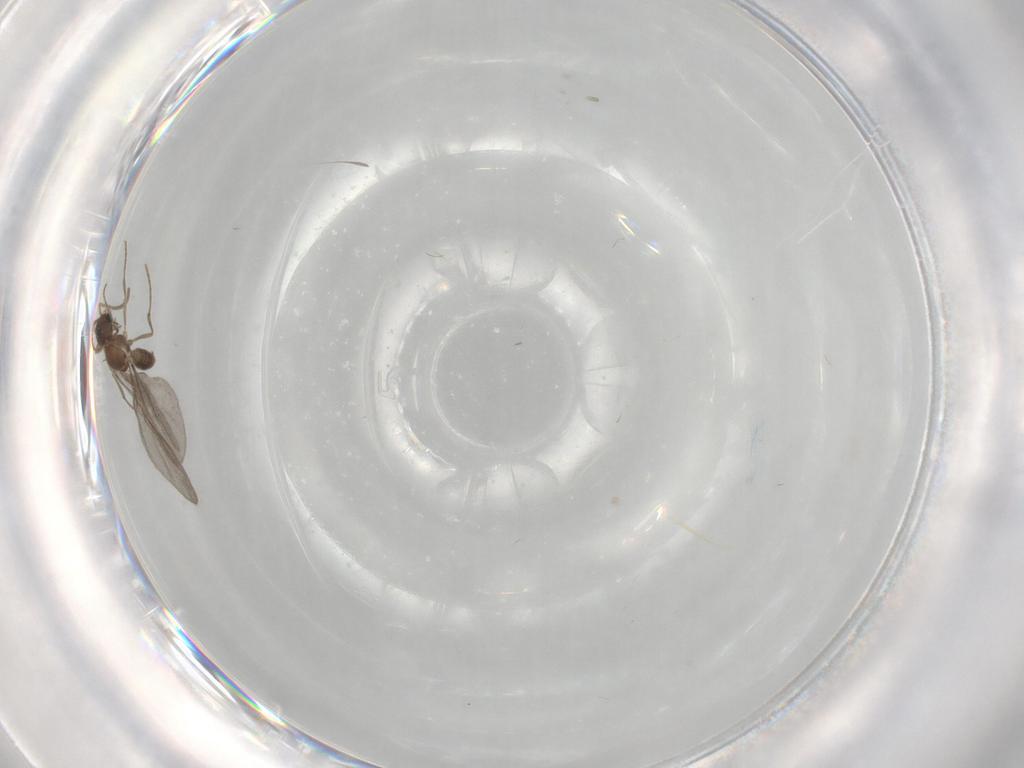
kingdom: Animalia
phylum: Arthropoda
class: Insecta
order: Hymenoptera
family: Formicidae
